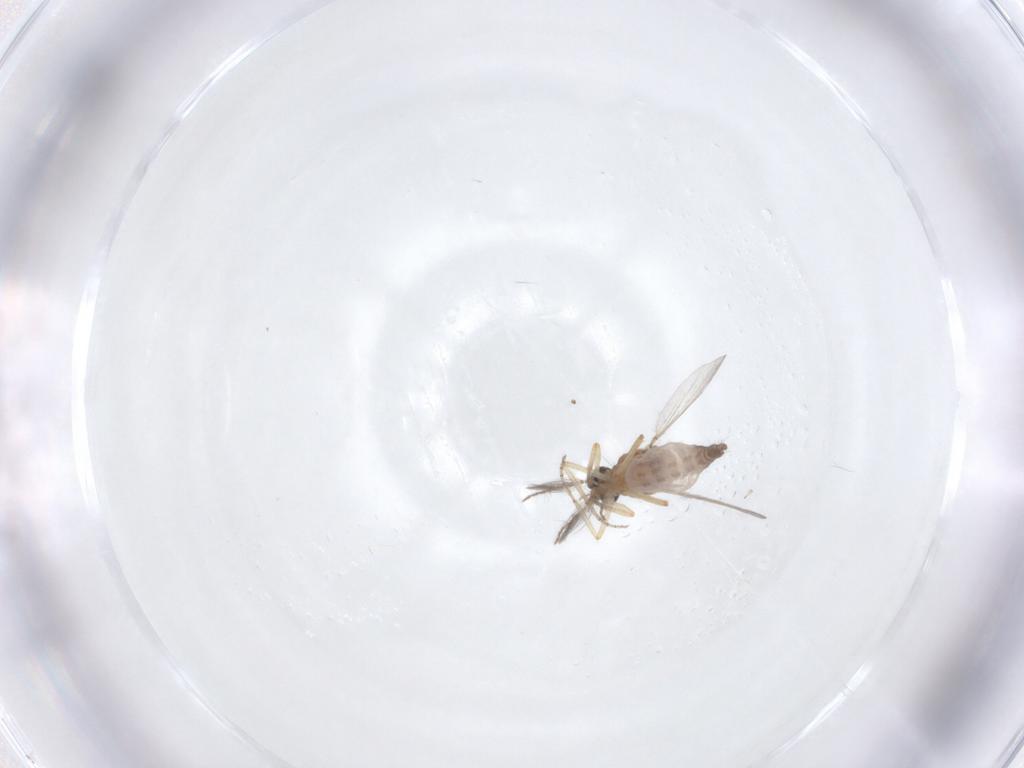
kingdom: Animalia
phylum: Arthropoda
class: Insecta
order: Diptera
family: Ceratopogonidae
